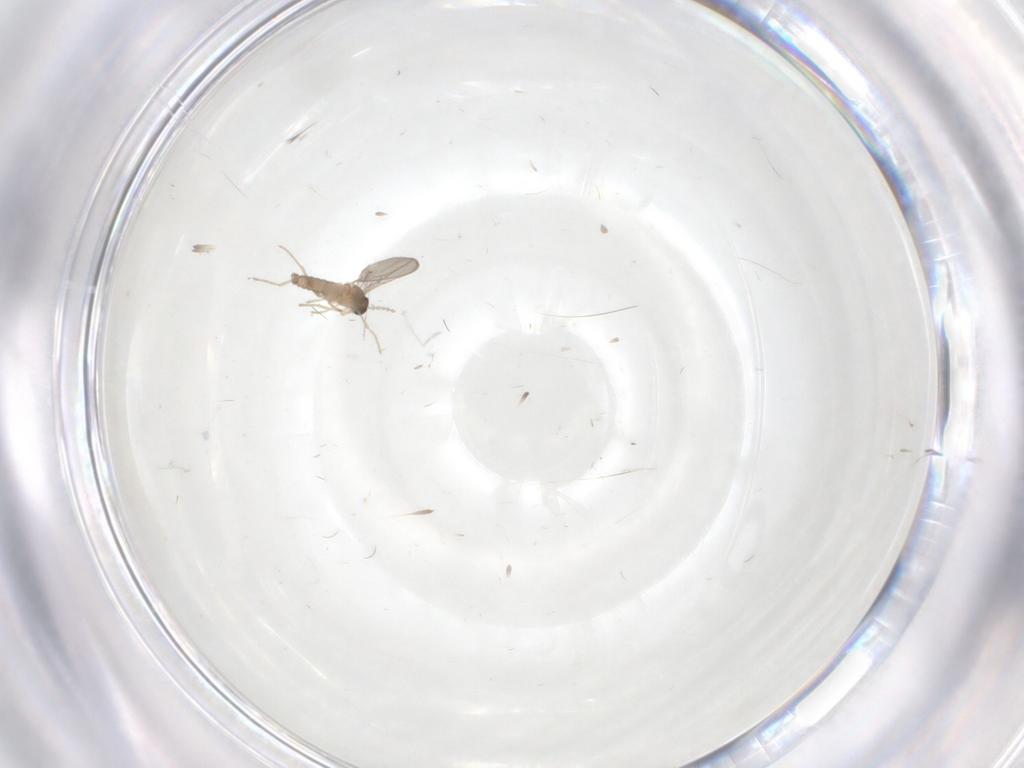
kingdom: Animalia
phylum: Arthropoda
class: Insecta
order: Diptera
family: Cecidomyiidae
